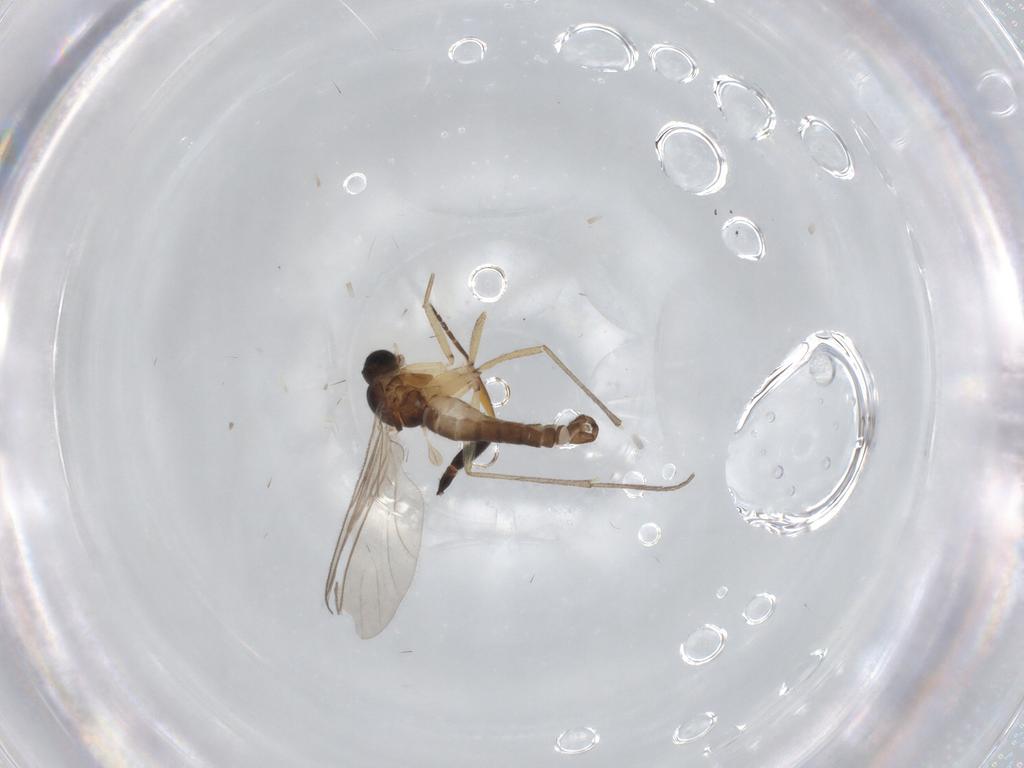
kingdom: Animalia
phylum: Arthropoda
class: Insecta
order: Diptera
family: Sciaridae
